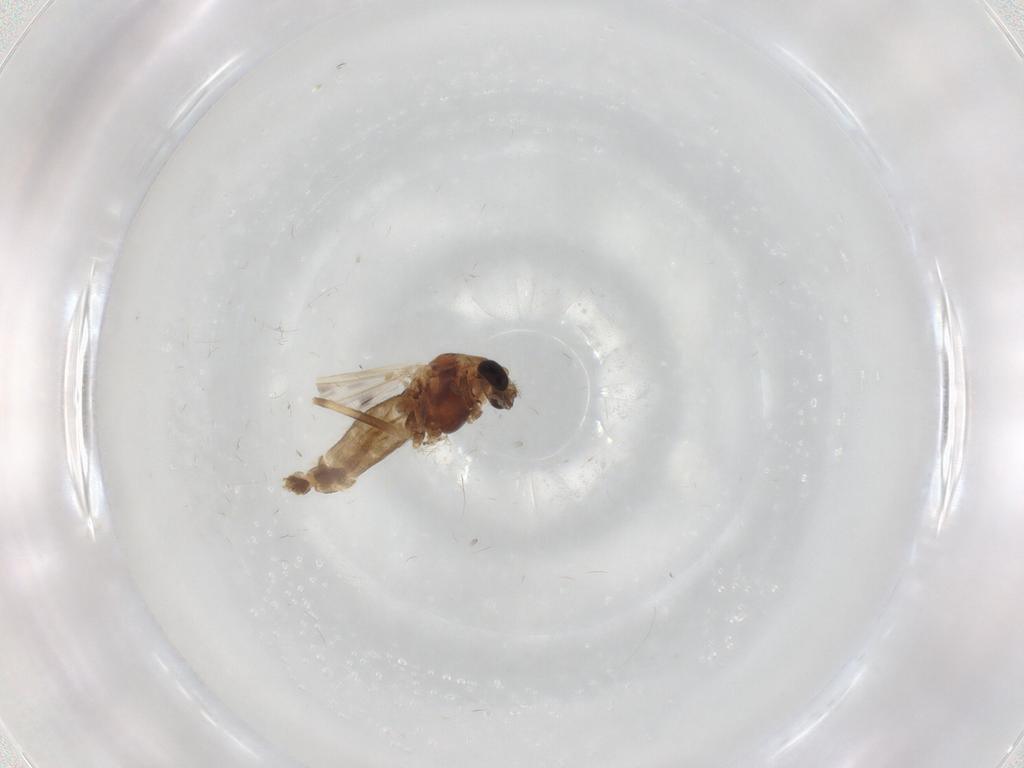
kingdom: Animalia
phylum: Arthropoda
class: Insecta
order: Diptera
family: Chironomidae
